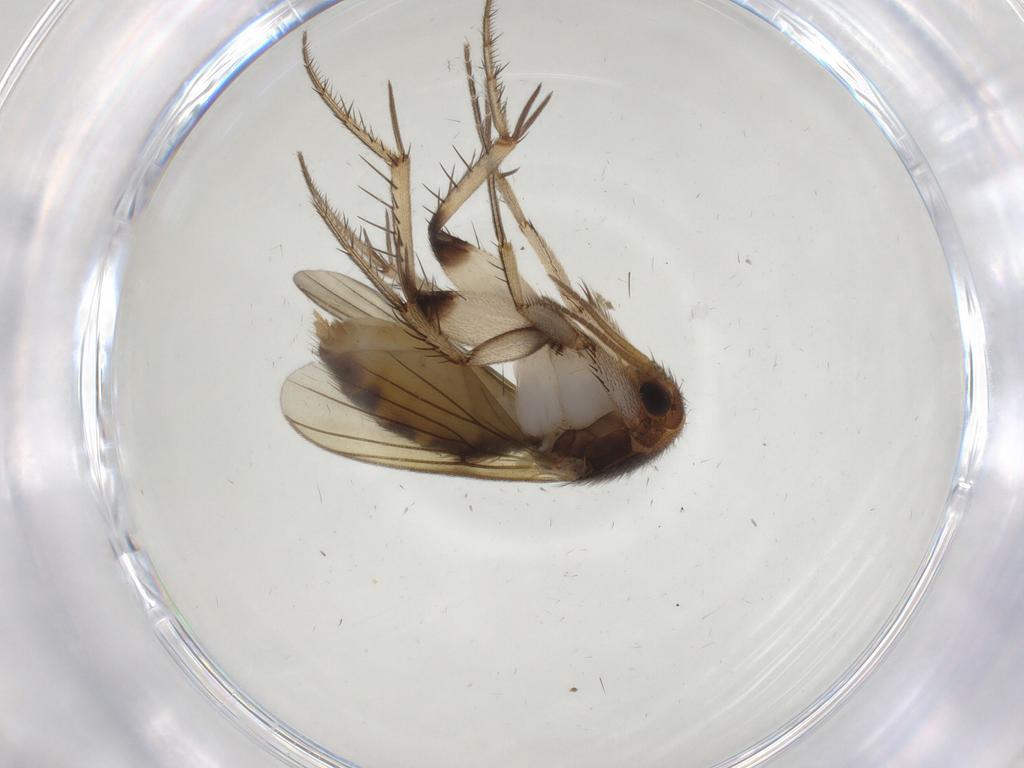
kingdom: Animalia
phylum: Arthropoda
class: Insecta
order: Diptera
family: Mycetophilidae
